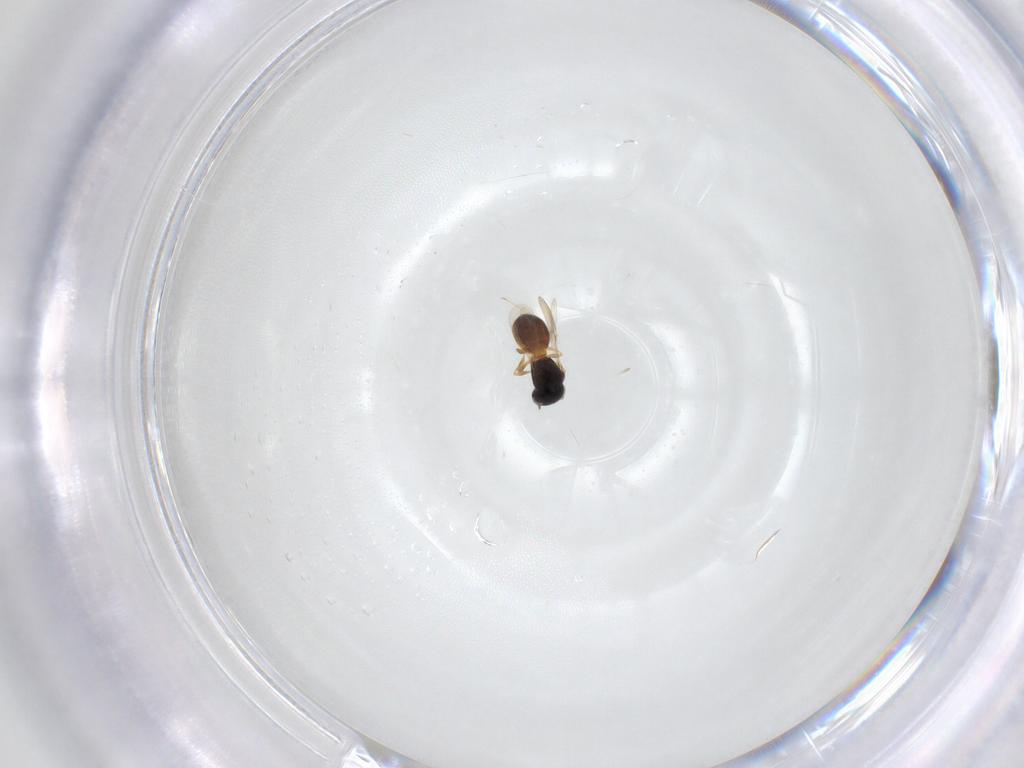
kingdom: Animalia
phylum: Arthropoda
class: Insecta
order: Hymenoptera
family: Scelionidae
